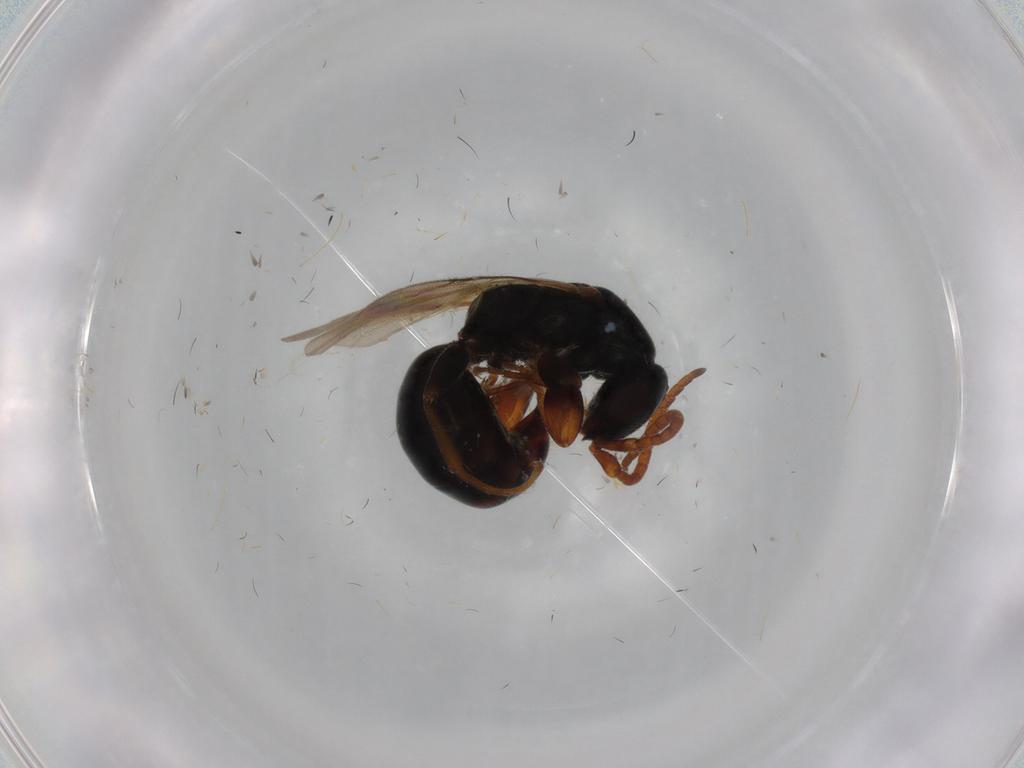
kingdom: Animalia
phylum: Arthropoda
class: Insecta
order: Hymenoptera
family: Bethylidae
